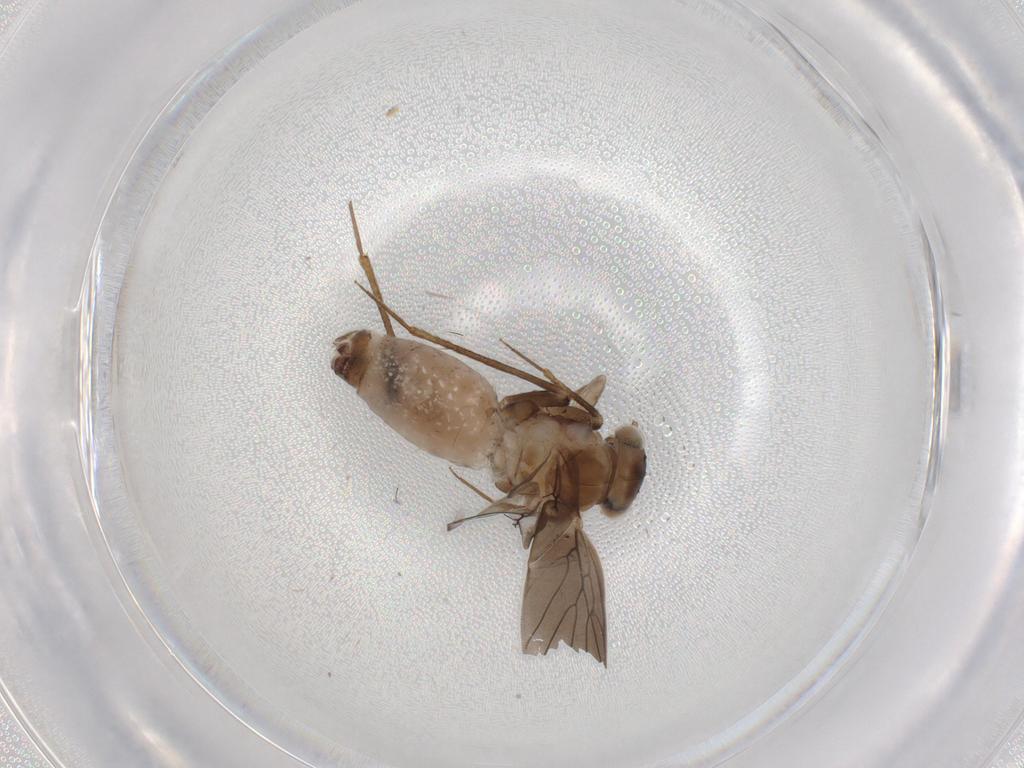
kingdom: Animalia
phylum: Arthropoda
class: Insecta
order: Psocodea
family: Lepidopsocidae
